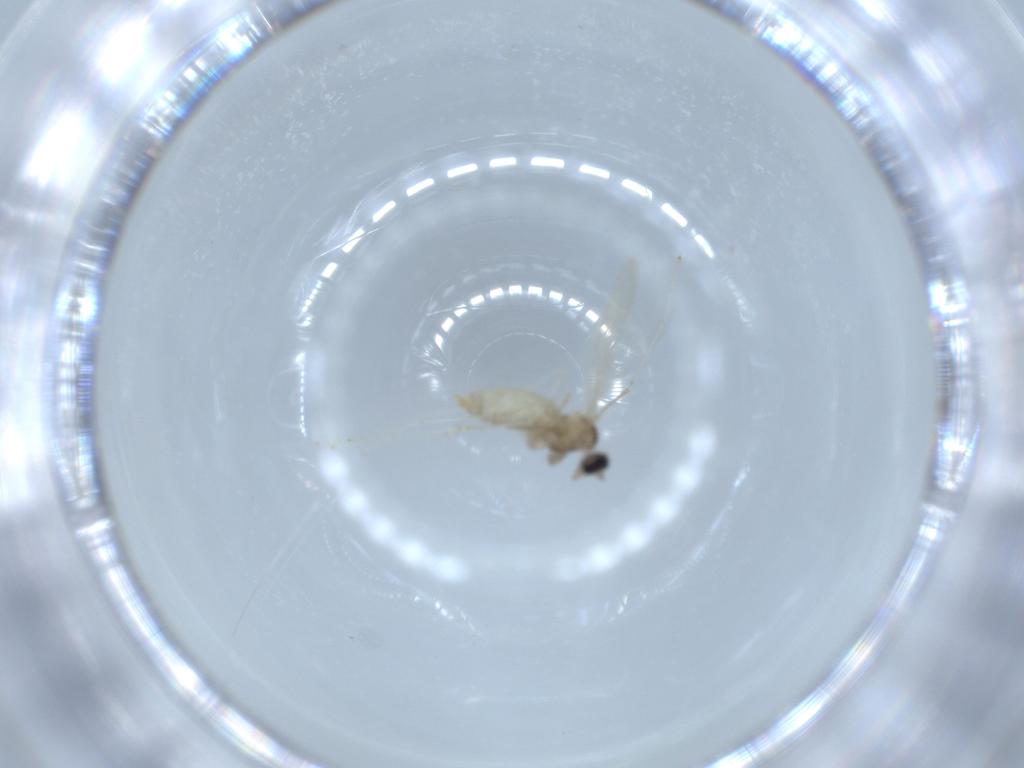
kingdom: Animalia
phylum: Arthropoda
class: Insecta
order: Diptera
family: Cecidomyiidae
